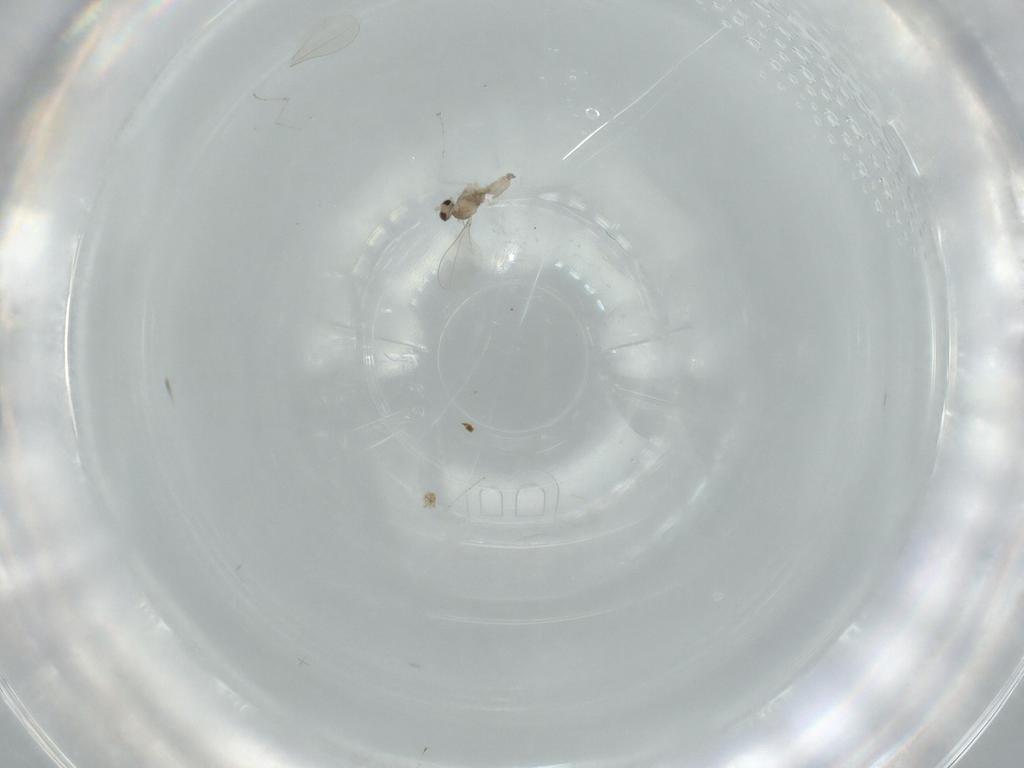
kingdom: Animalia
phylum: Arthropoda
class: Insecta
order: Diptera
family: Cecidomyiidae
